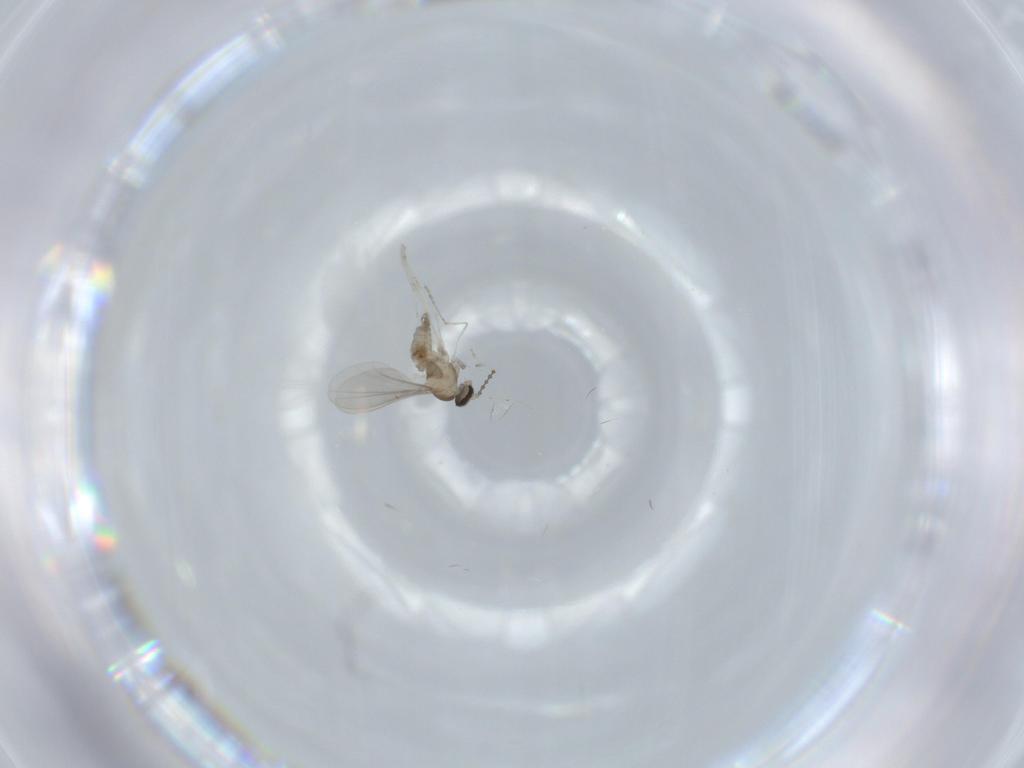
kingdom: Animalia
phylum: Arthropoda
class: Insecta
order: Diptera
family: Cecidomyiidae
